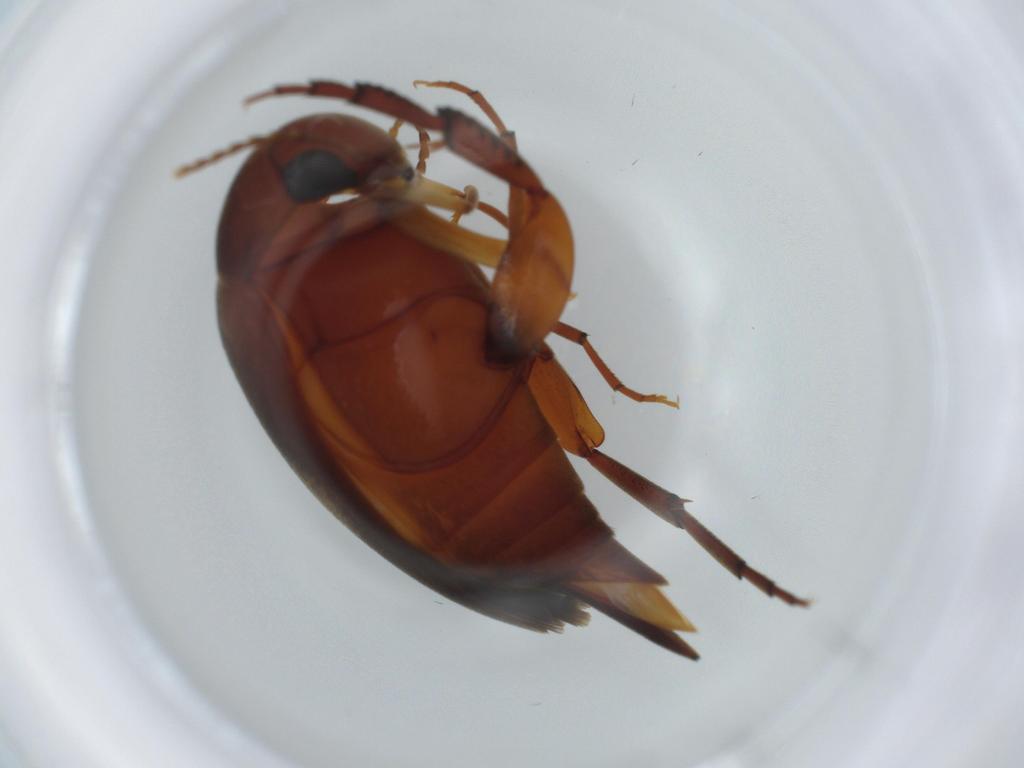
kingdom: Animalia
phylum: Arthropoda
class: Insecta
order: Coleoptera
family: Mordellidae
